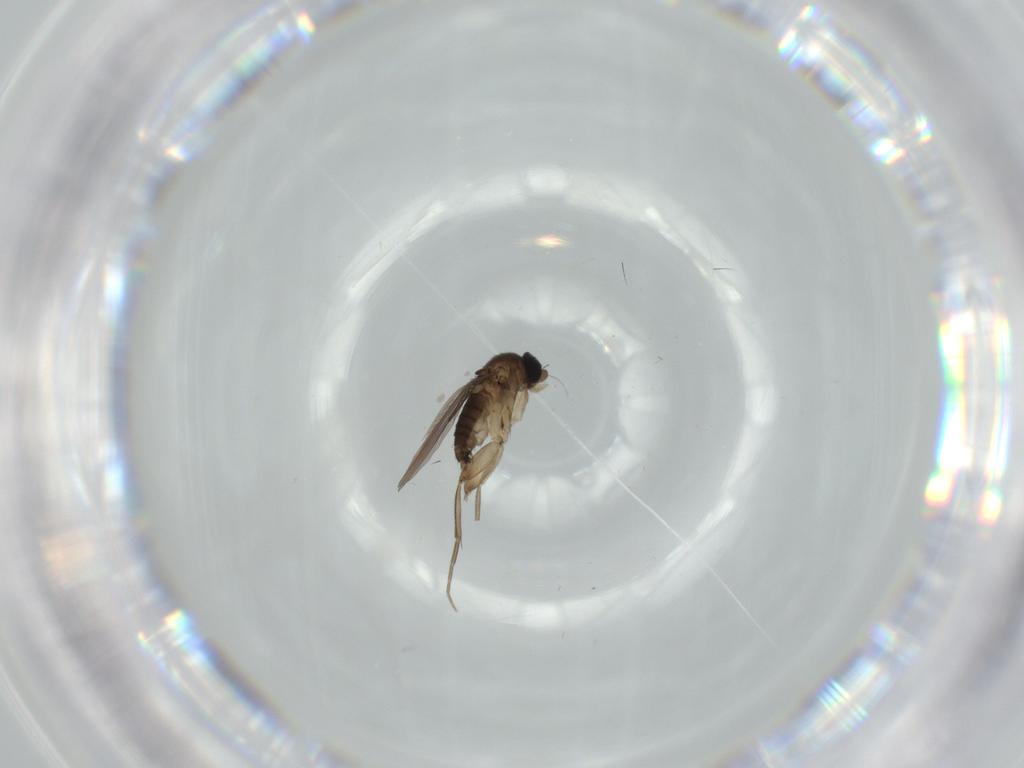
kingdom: Animalia
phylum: Arthropoda
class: Insecta
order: Diptera
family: Phoridae
